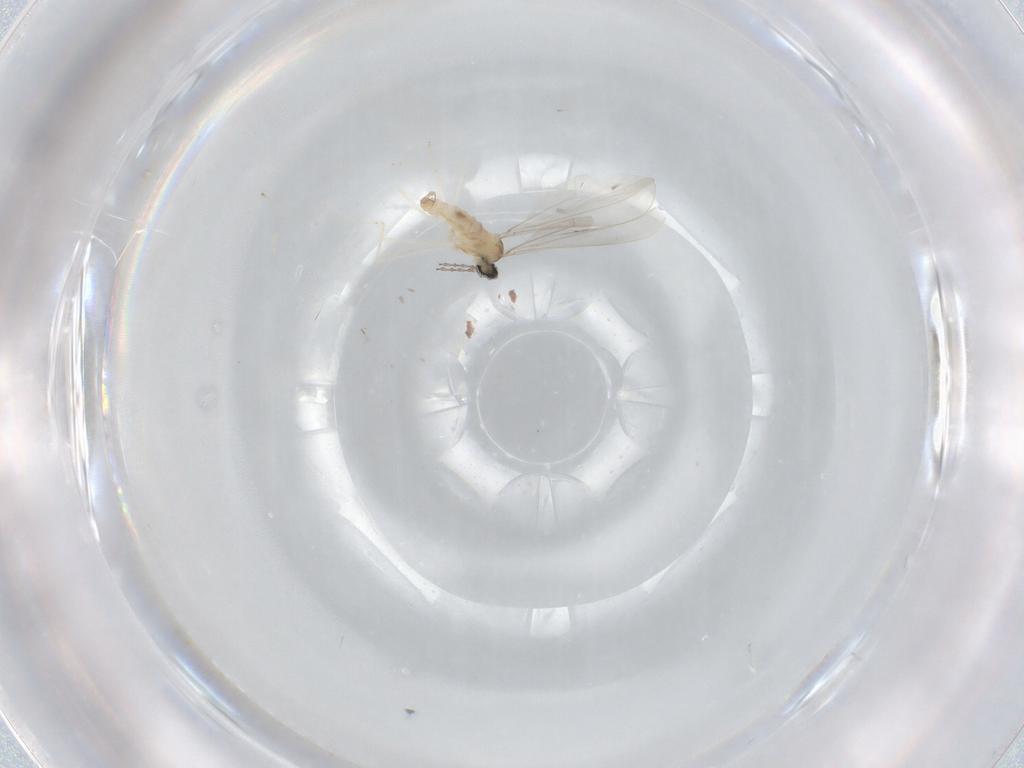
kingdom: Animalia
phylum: Arthropoda
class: Insecta
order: Diptera
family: Cecidomyiidae
